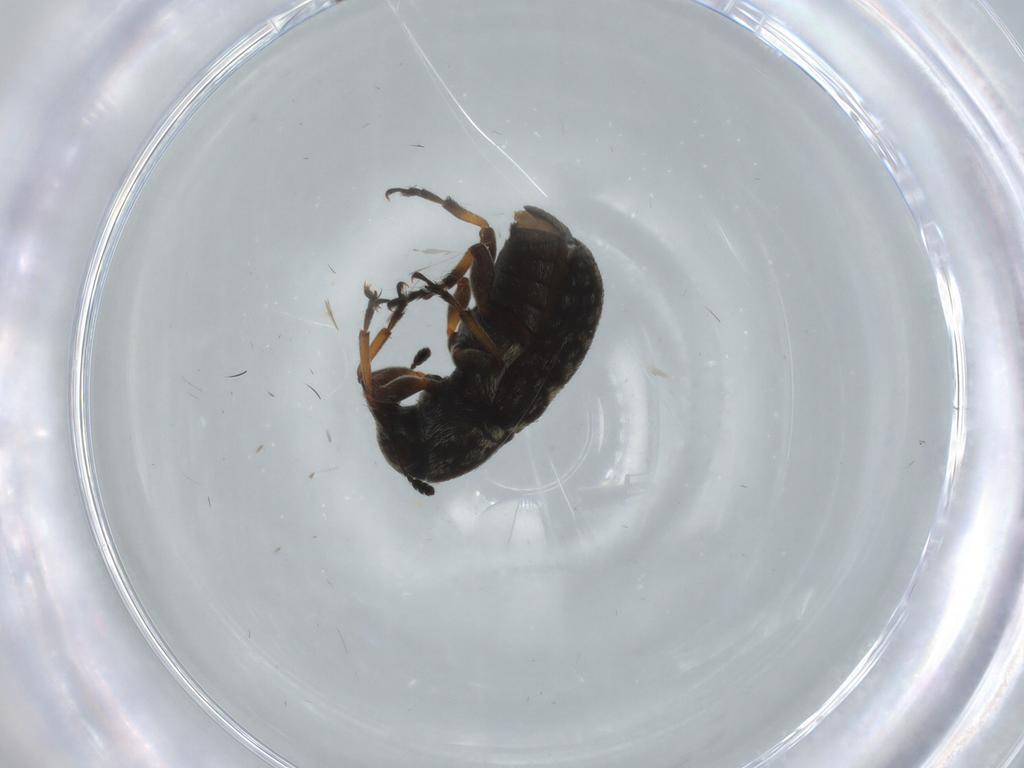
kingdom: Animalia
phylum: Arthropoda
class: Insecta
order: Coleoptera
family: Anthribidae
